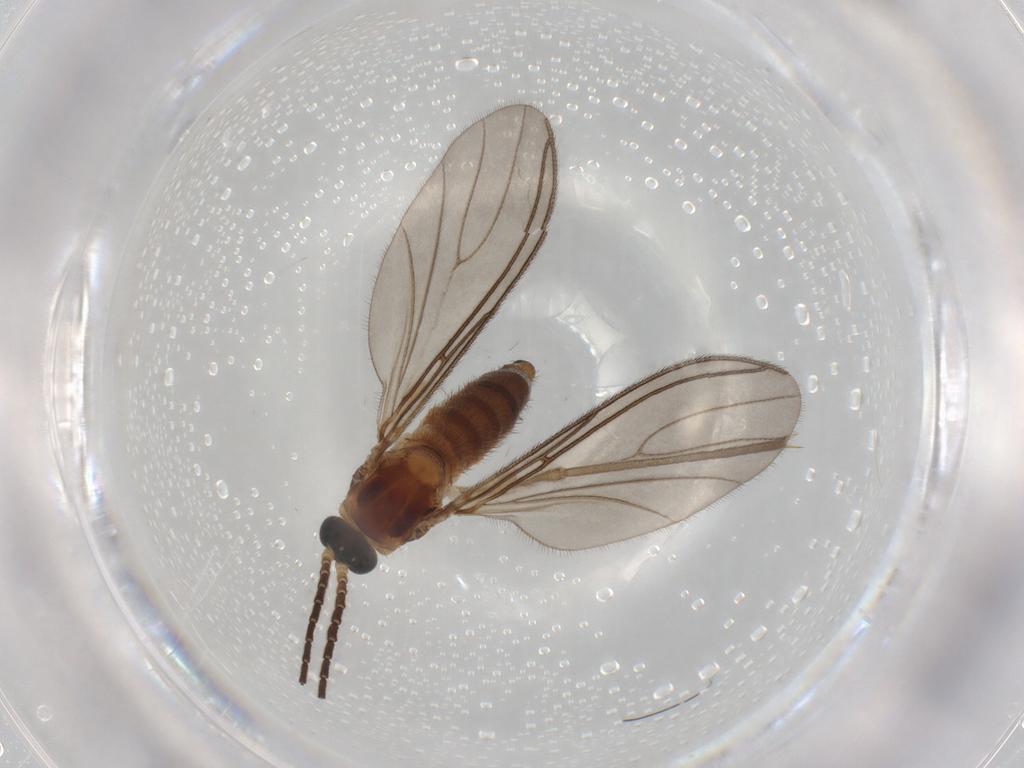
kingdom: Animalia
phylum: Arthropoda
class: Insecta
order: Diptera
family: Sciaridae
